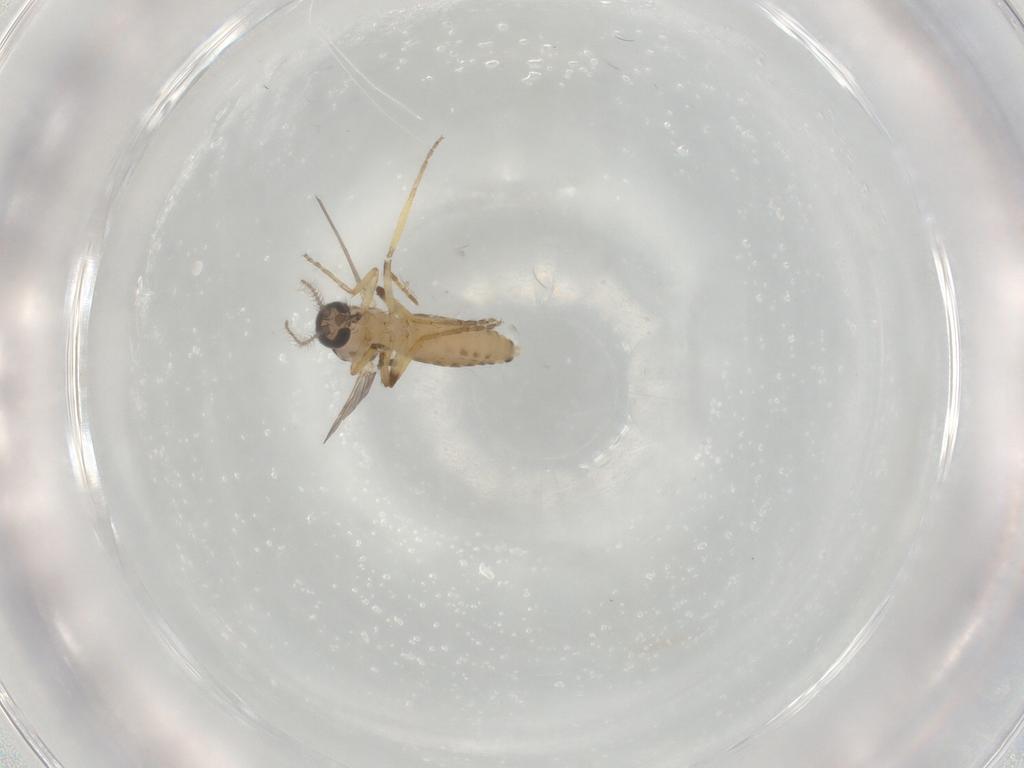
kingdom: Animalia
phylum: Arthropoda
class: Insecta
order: Diptera
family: Ceratopogonidae
